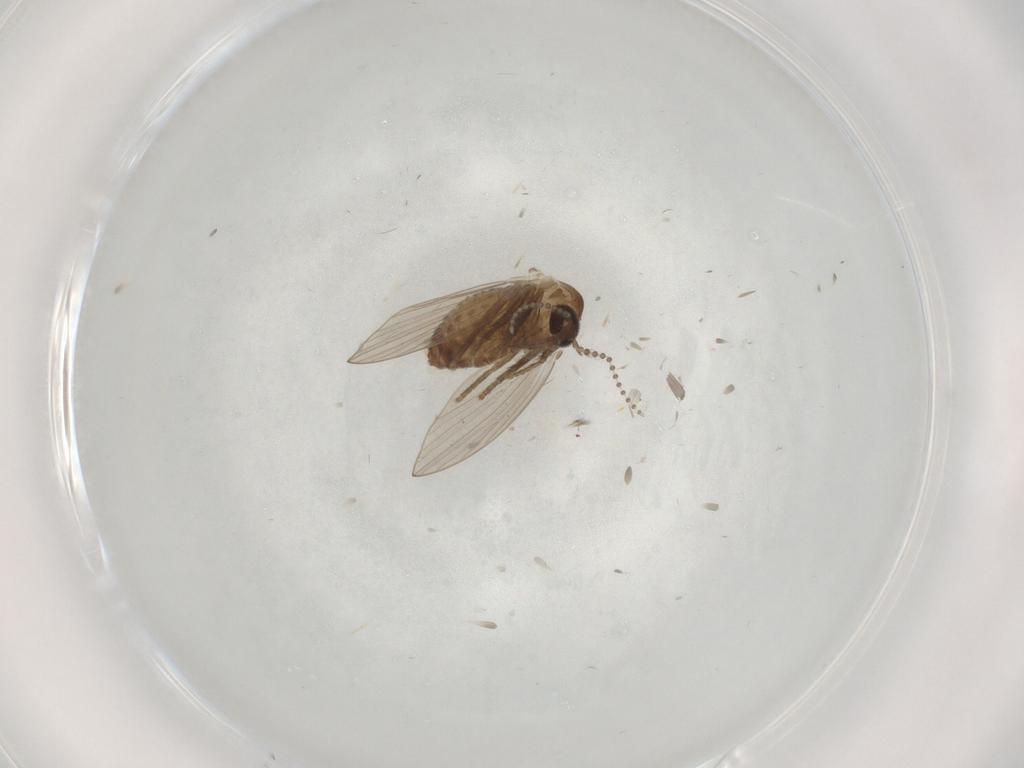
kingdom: Animalia
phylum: Arthropoda
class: Insecta
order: Diptera
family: Psychodidae
